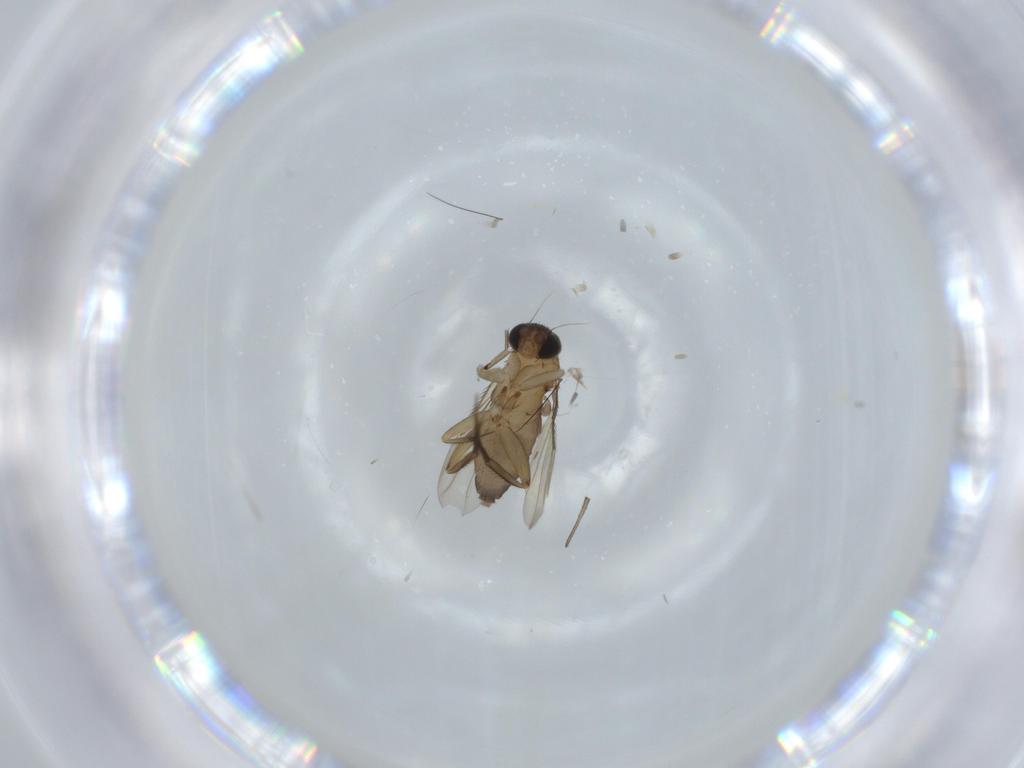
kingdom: Animalia
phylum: Arthropoda
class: Insecta
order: Diptera
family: Phoridae
